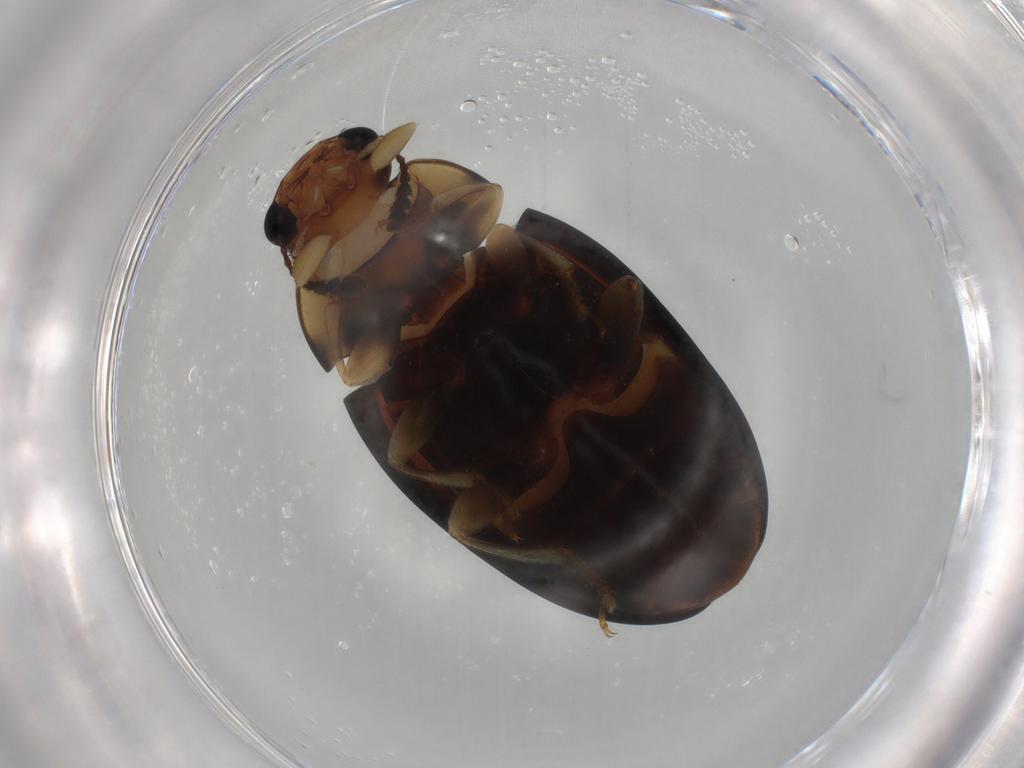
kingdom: Animalia
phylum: Arthropoda
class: Insecta
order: Coleoptera
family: Erotylidae
